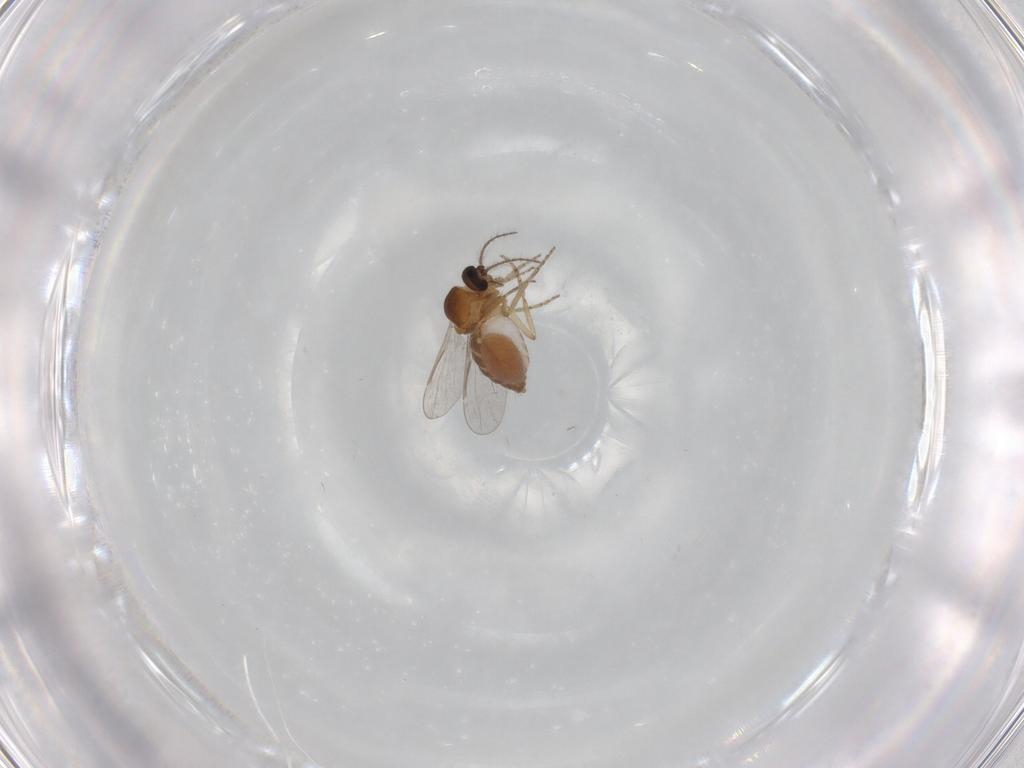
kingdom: Animalia
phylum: Arthropoda
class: Insecta
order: Diptera
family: Ceratopogonidae
